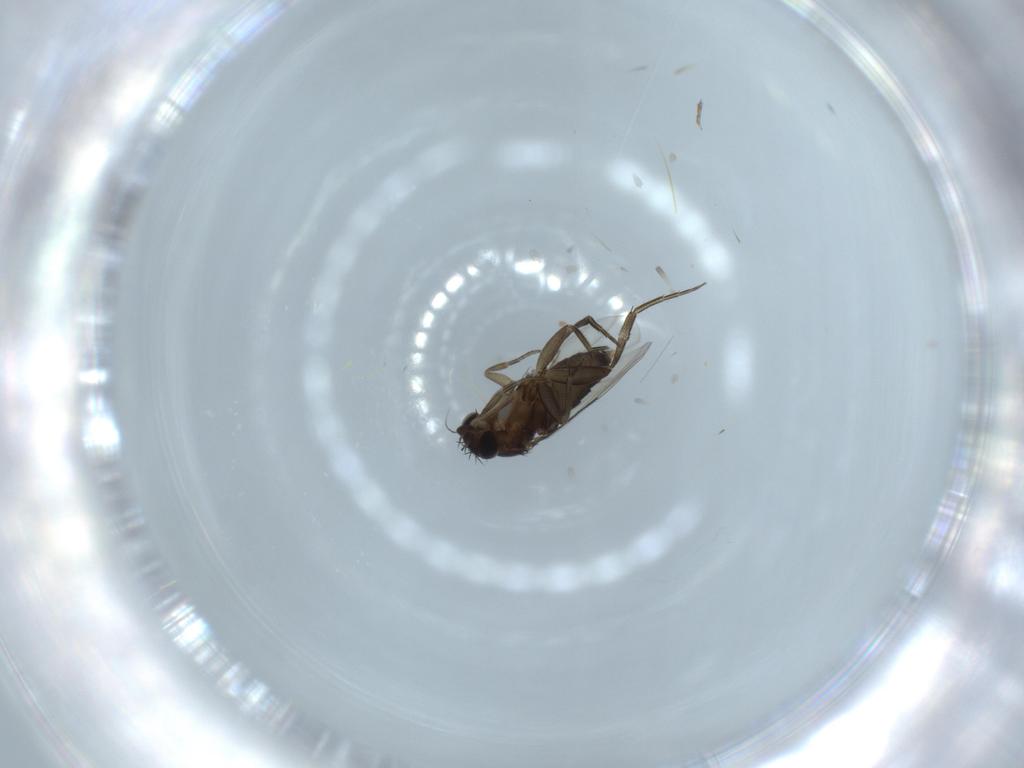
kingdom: Animalia
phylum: Arthropoda
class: Insecta
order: Diptera
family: Phoridae
